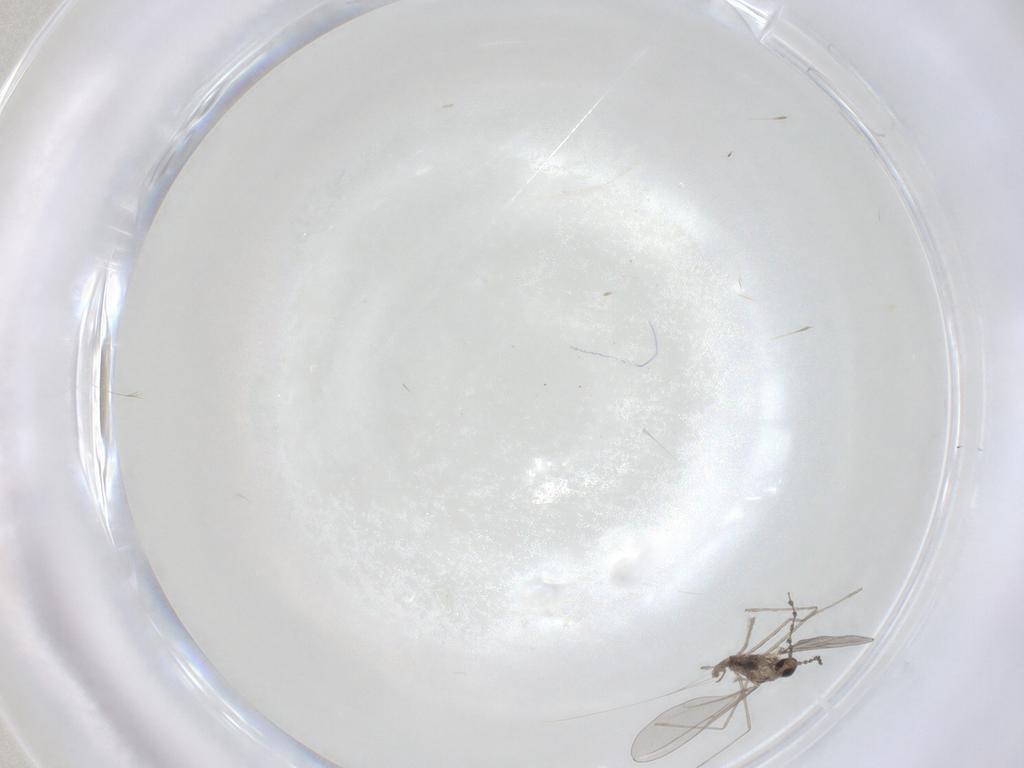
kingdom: Animalia
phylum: Arthropoda
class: Insecta
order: Diptera
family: Cecidomyiidae
